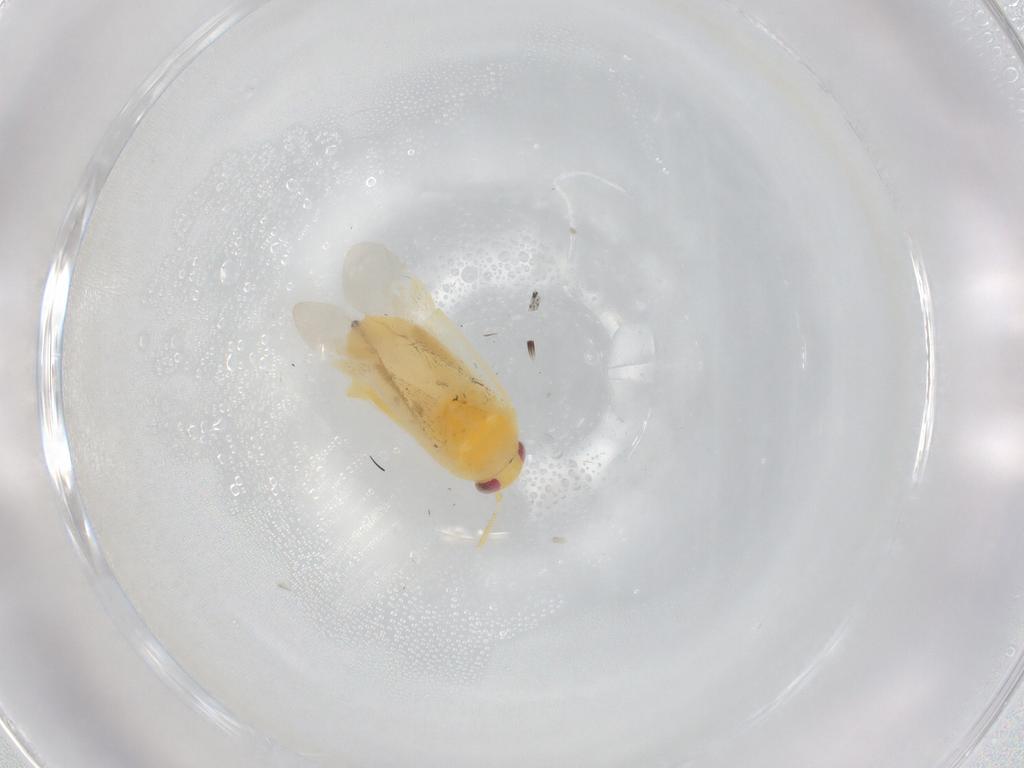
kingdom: Animalia
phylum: Arthropoda
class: Insecta
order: Hemiptera
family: Miridae
